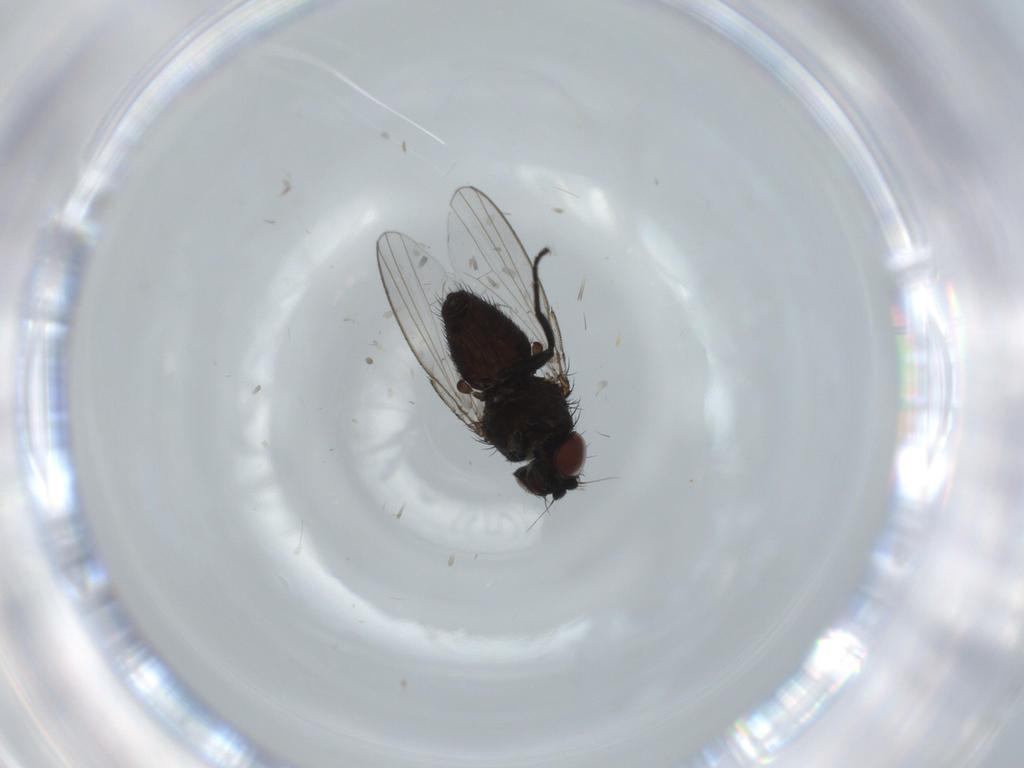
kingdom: Animalia
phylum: Arthropoda
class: Insecta
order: Diptera
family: Milichiidae
